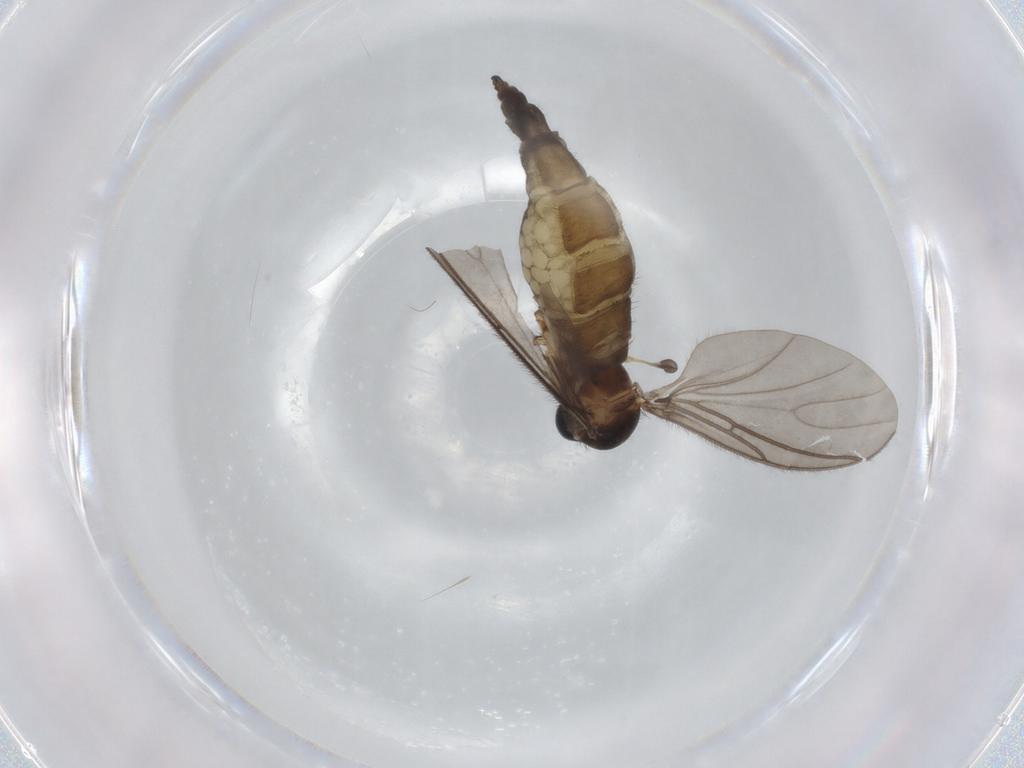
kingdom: Animalia
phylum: Arthropoda
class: Insecta
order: Diptera
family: Sciaridae
